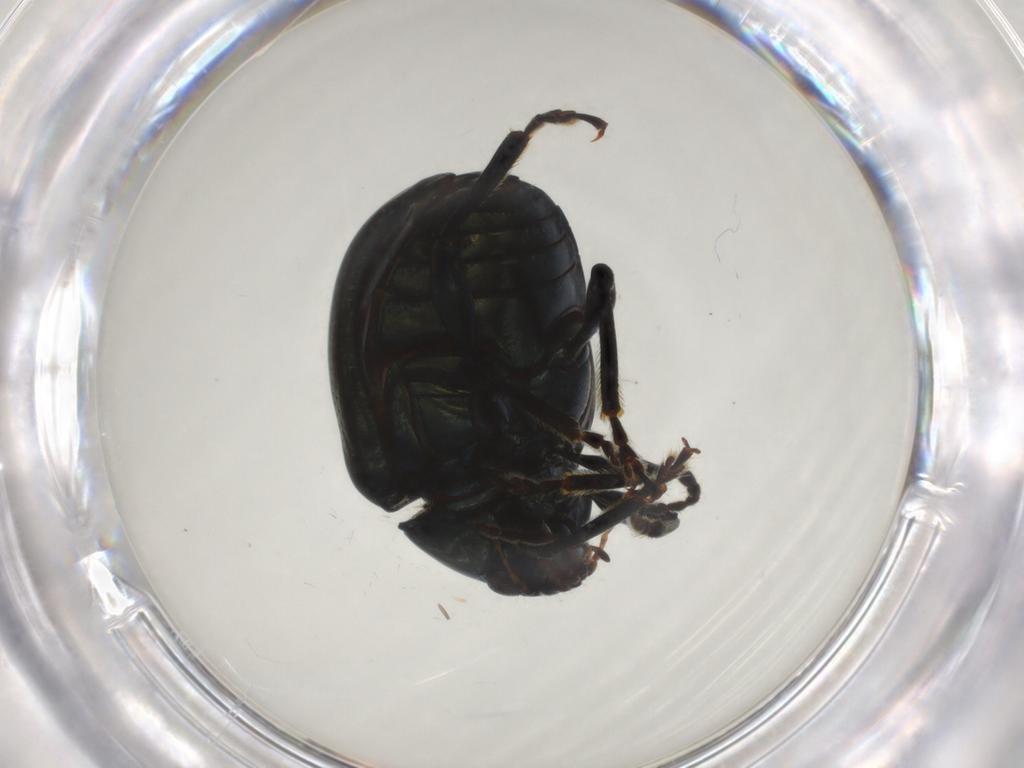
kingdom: Animalia
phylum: Arthropoda
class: Insecta
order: Coleoptera
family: Chrysomelidae
